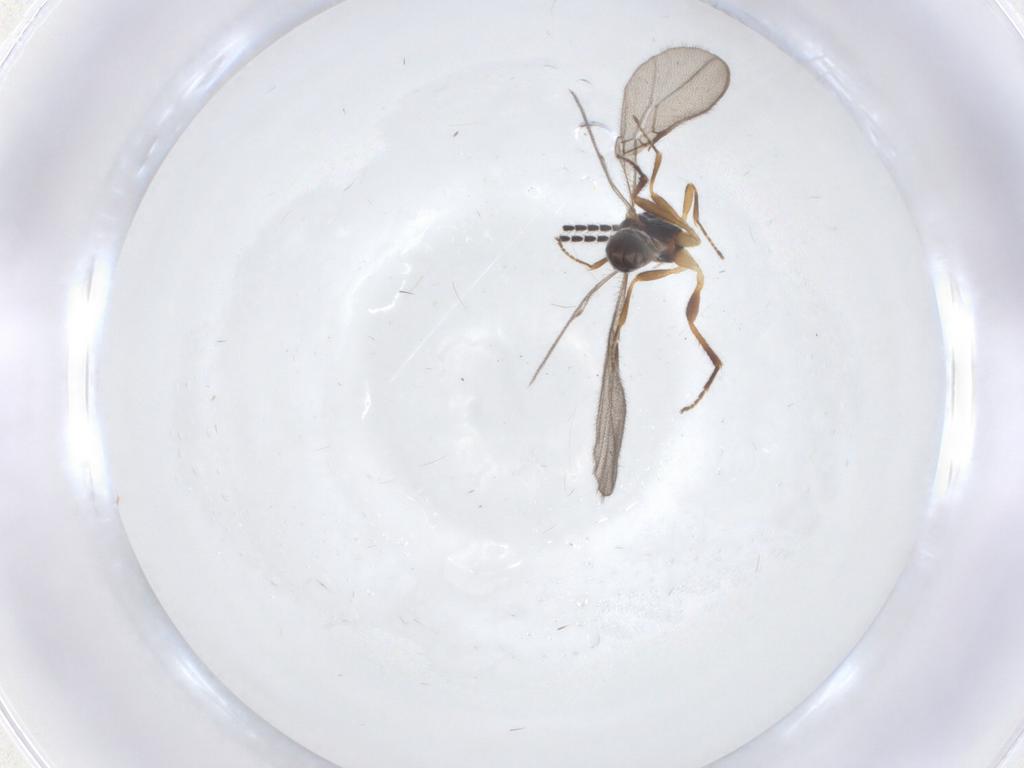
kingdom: Animalia
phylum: Arthropoda
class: Insecta
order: Hymenoptera
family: Braconidae
